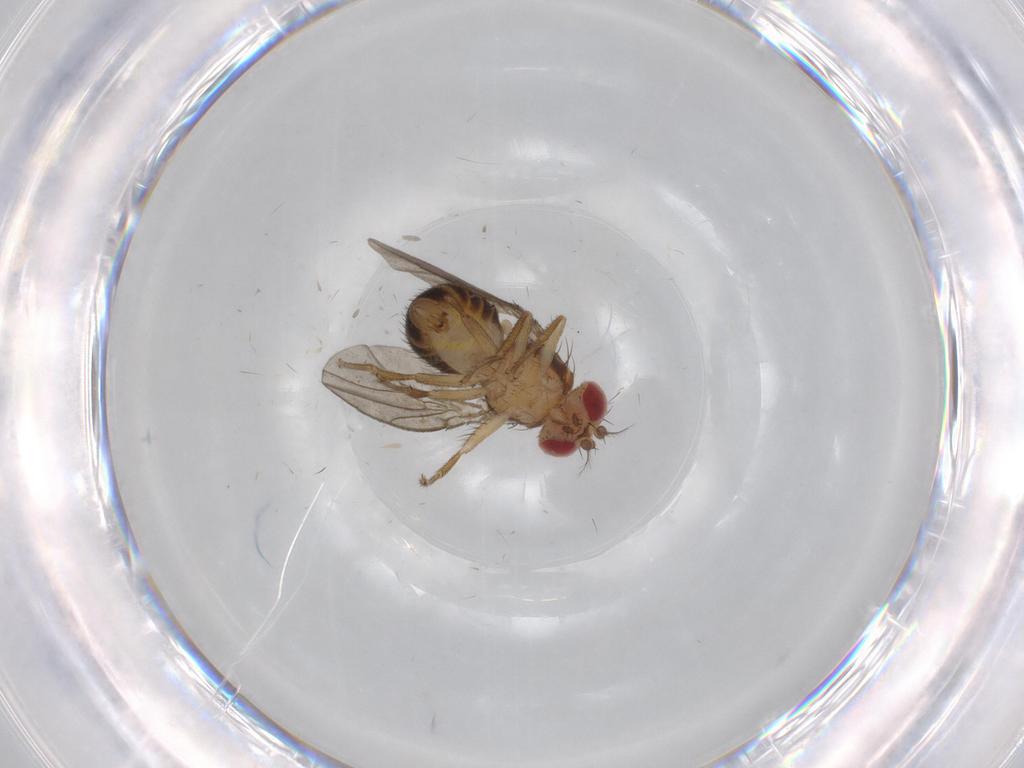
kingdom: Animalia
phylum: Arthropoda
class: Insecta
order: Diptera
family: Drosophilidae
